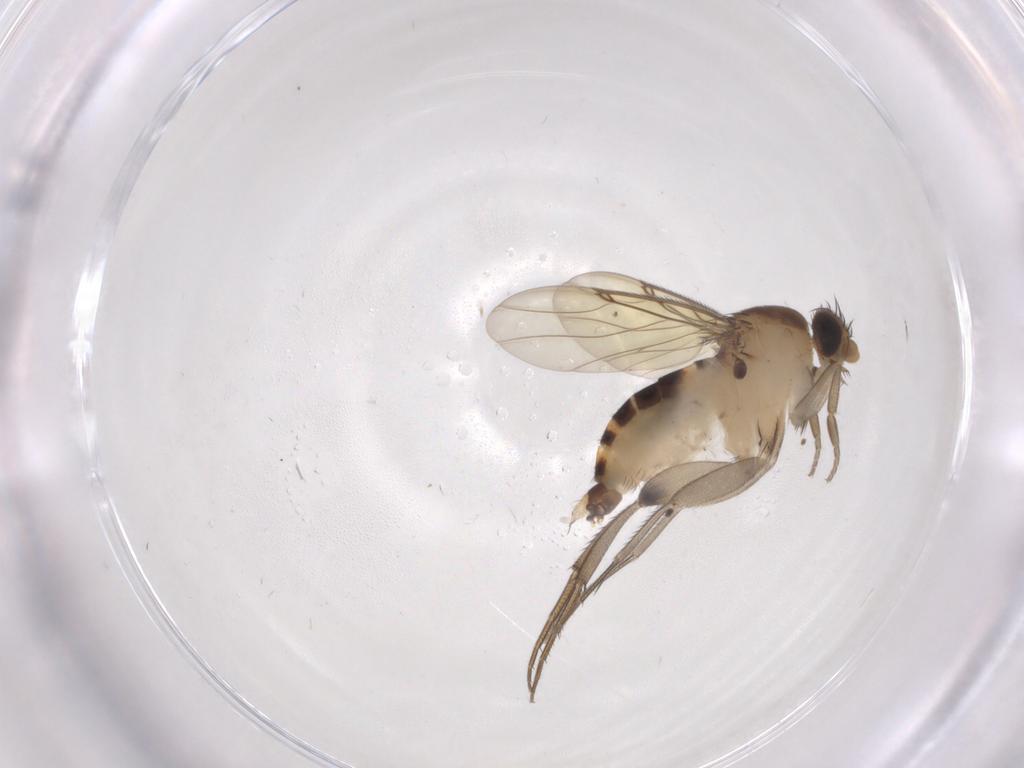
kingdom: Animalia
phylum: Arthropoda
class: Insecta
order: Diptera
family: Phoridae
